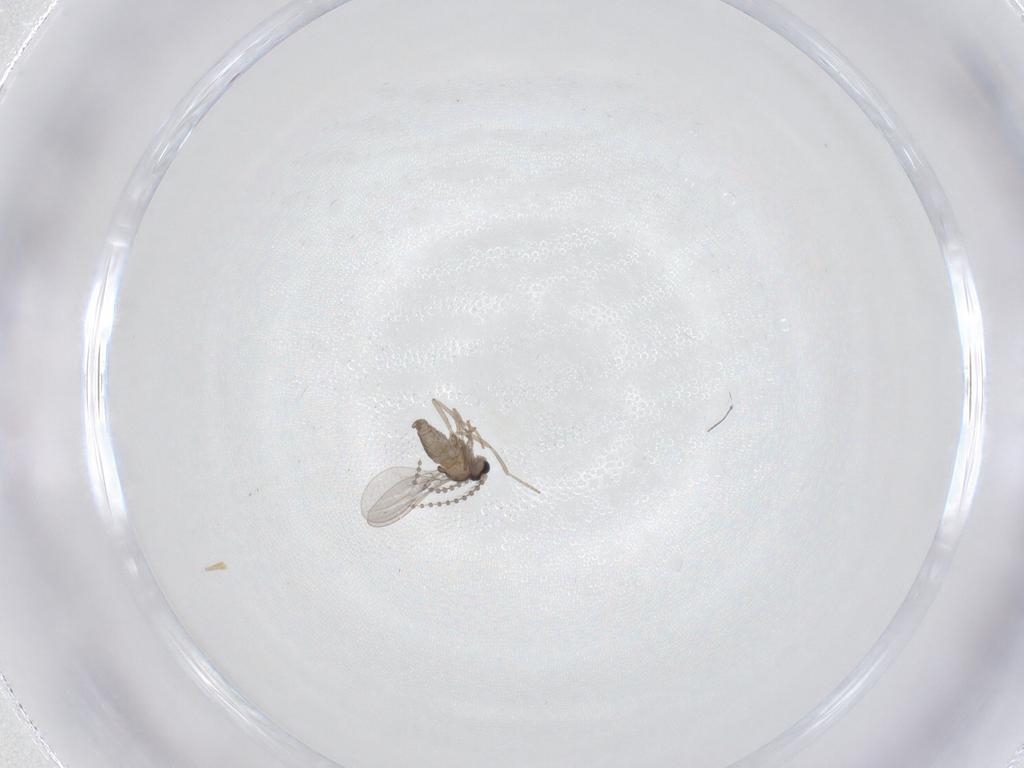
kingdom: Animalia
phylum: Arthropoda
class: Insecta
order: Diptera
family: Cecidomyiidae
